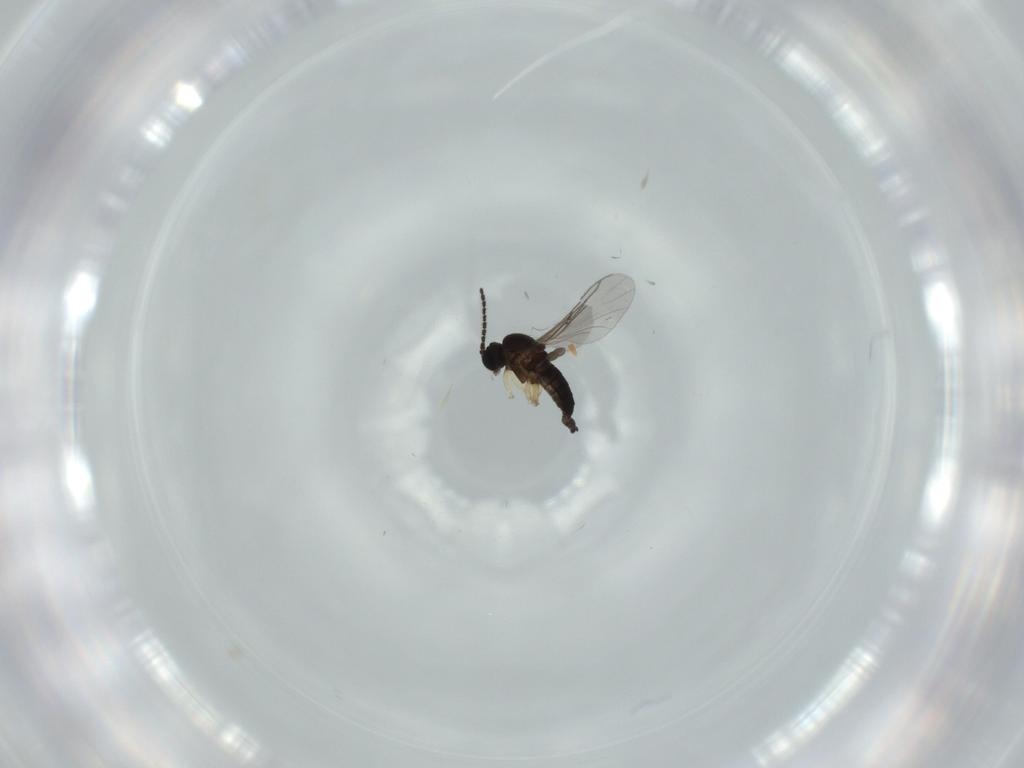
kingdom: Animalia
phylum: Arthropoda
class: Insecta
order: Diptera
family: Sciaridae
